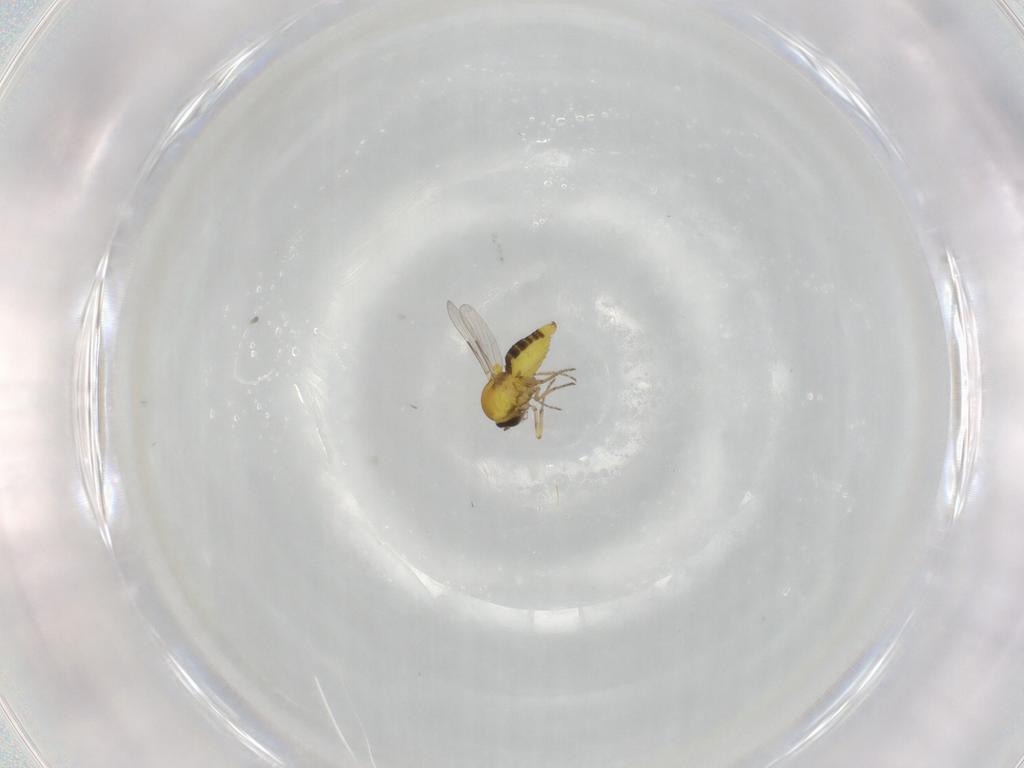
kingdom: Animalia
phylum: Arthropoda
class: Insecta
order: Diptera
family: Ceratopogonidae
